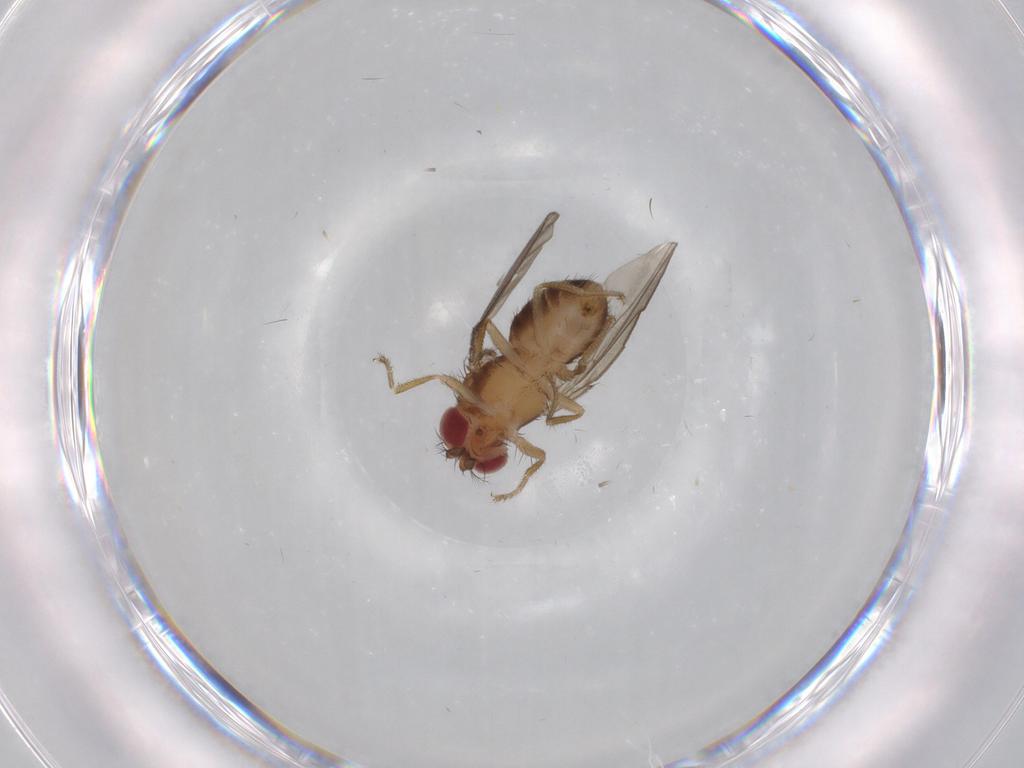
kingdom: Animalia
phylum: Arthropoda
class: Insecta
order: Diptera
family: Drosophilidae
